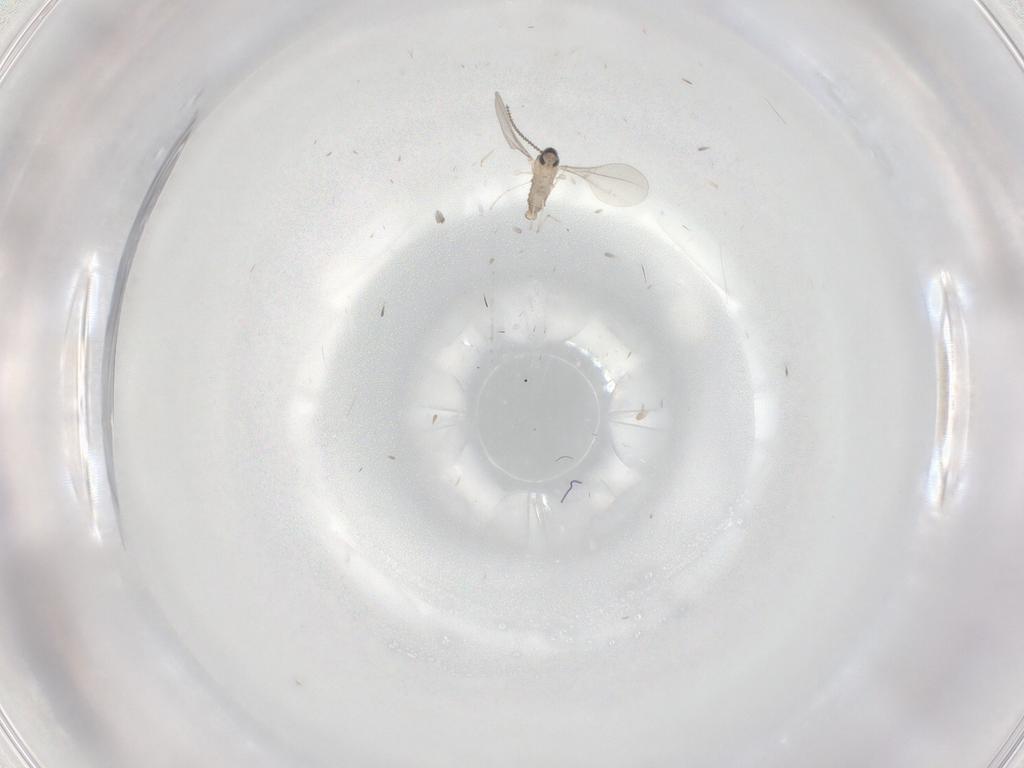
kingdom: Animalia
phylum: Arthropoda
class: Insecta
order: Diptera
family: Cecidomyiidae
